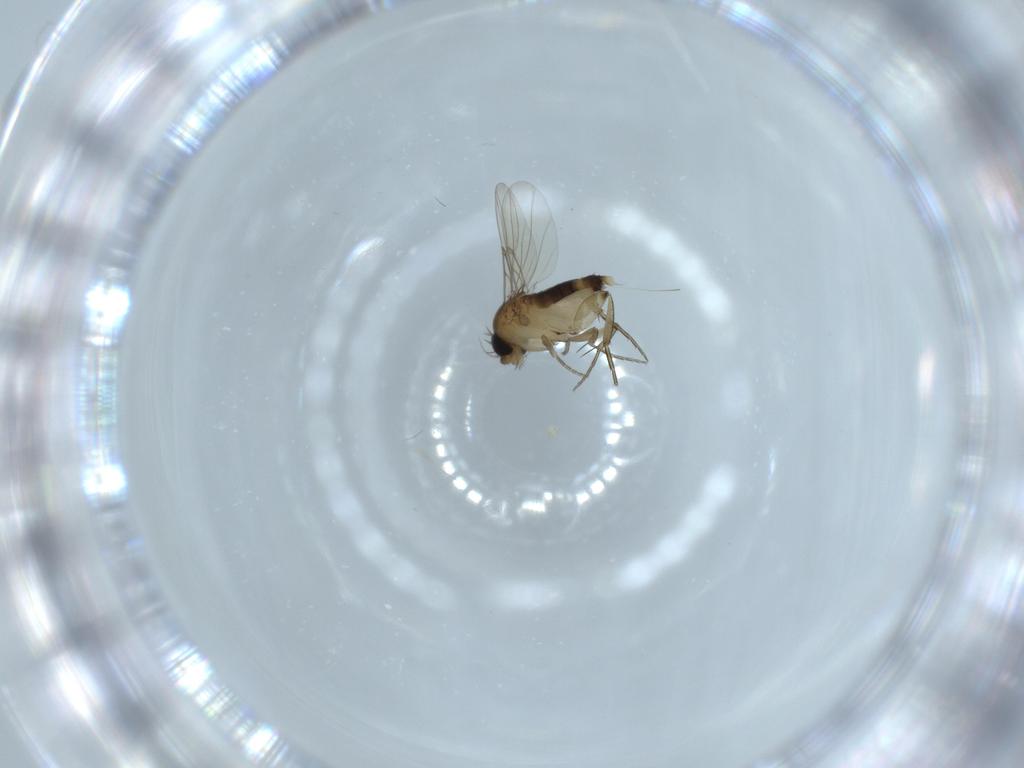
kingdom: Animalia
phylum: Arthropoda
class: Insecta
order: Diptera
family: Phoridae
